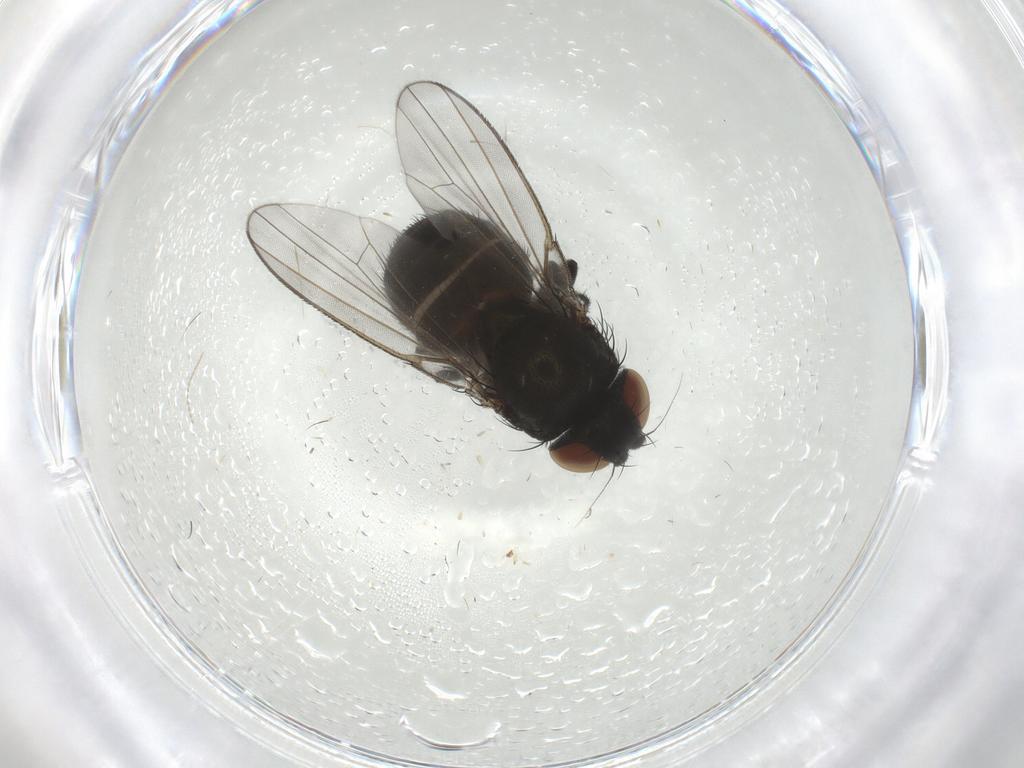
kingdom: Animalia
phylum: Arthropoda
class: Insecta
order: Diptera
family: Milichiidae
